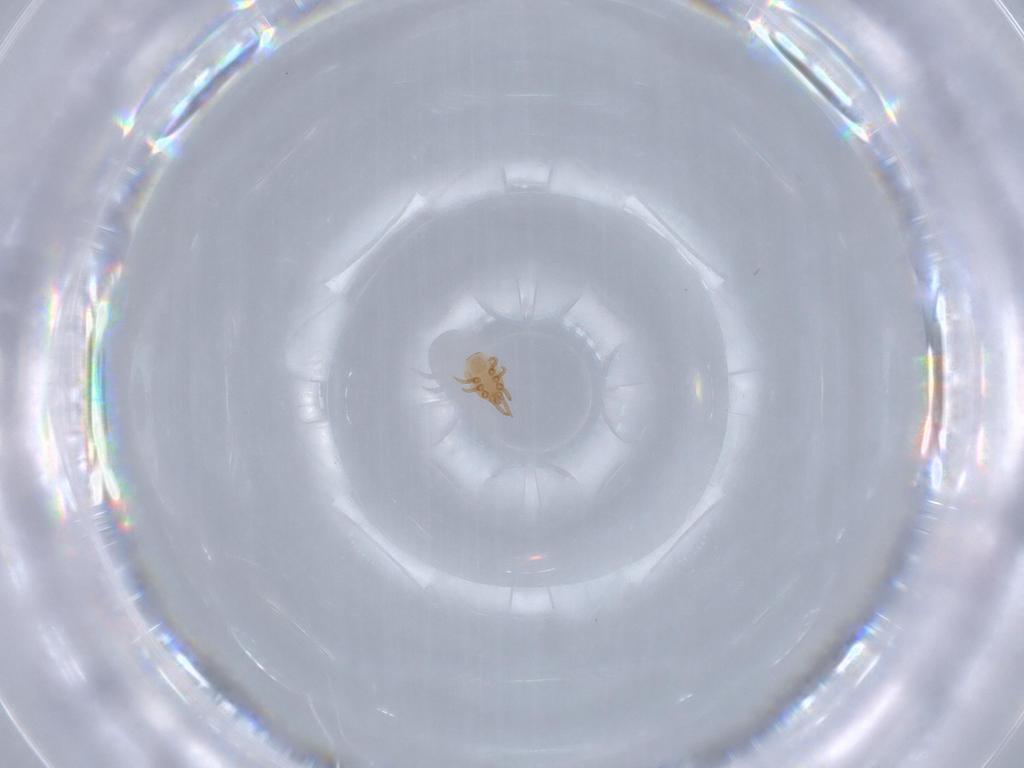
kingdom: Animalia
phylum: Arthropoda
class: Arachnida
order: Mesostigmata
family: Dinychidae
